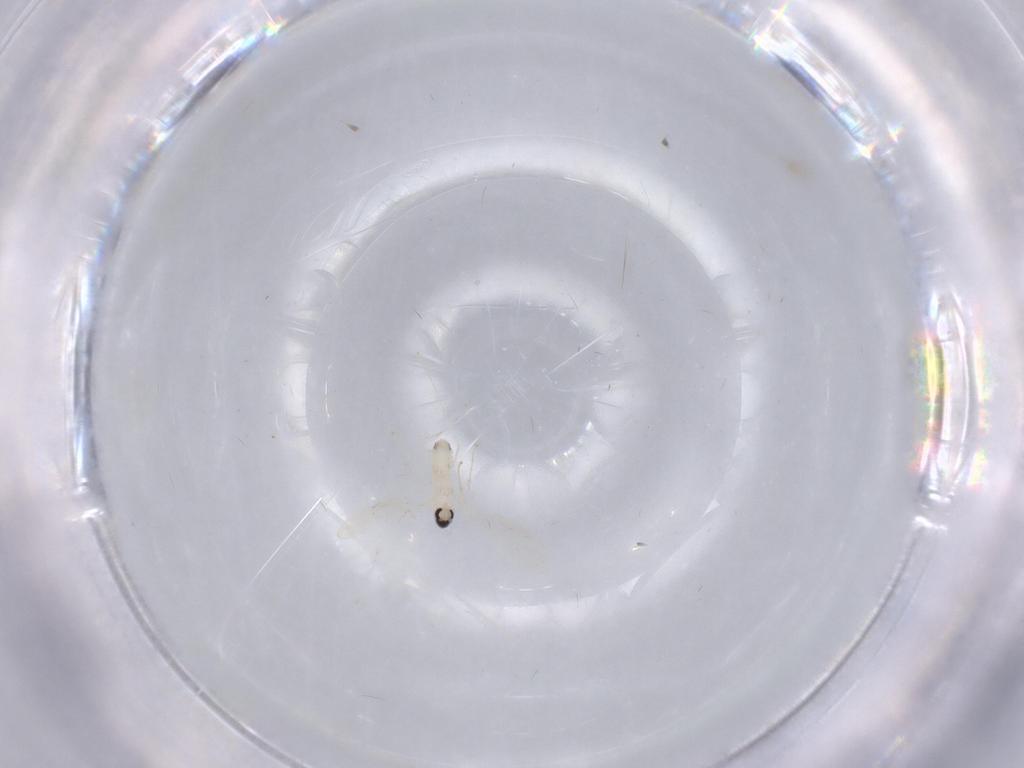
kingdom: Animalia
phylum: Arthropoda
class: Insecta
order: Diptera
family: Cecidomyiidae
